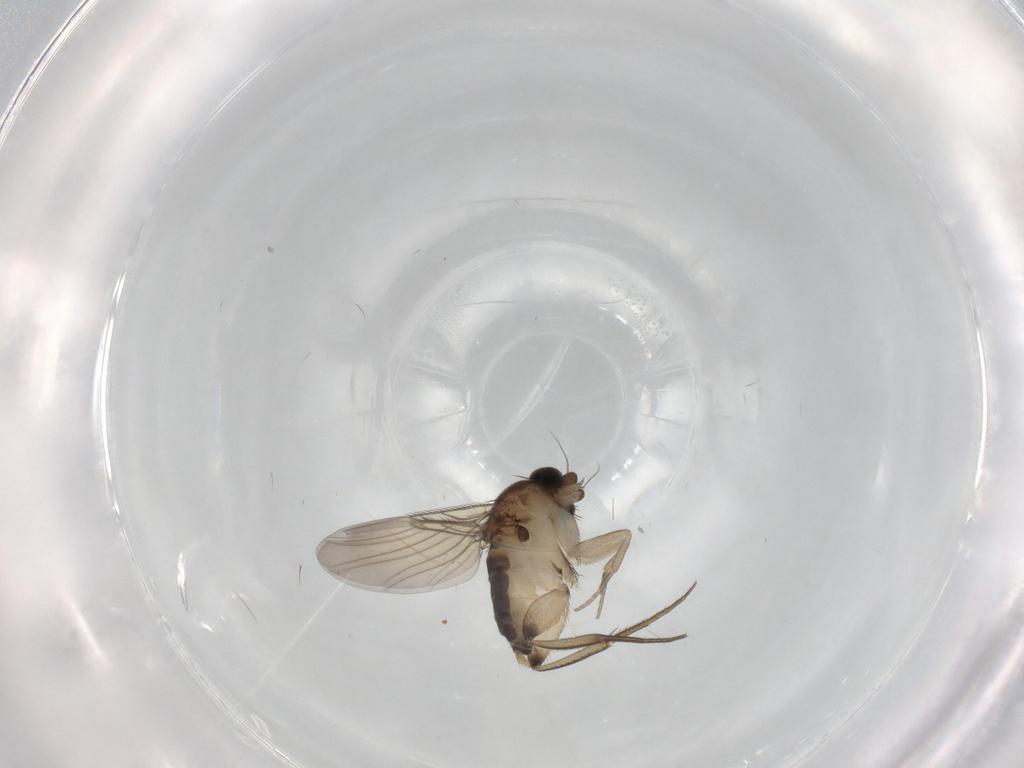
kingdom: Animalia
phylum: Arthropoda
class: Insecta
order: Diptera
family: Phoridae
